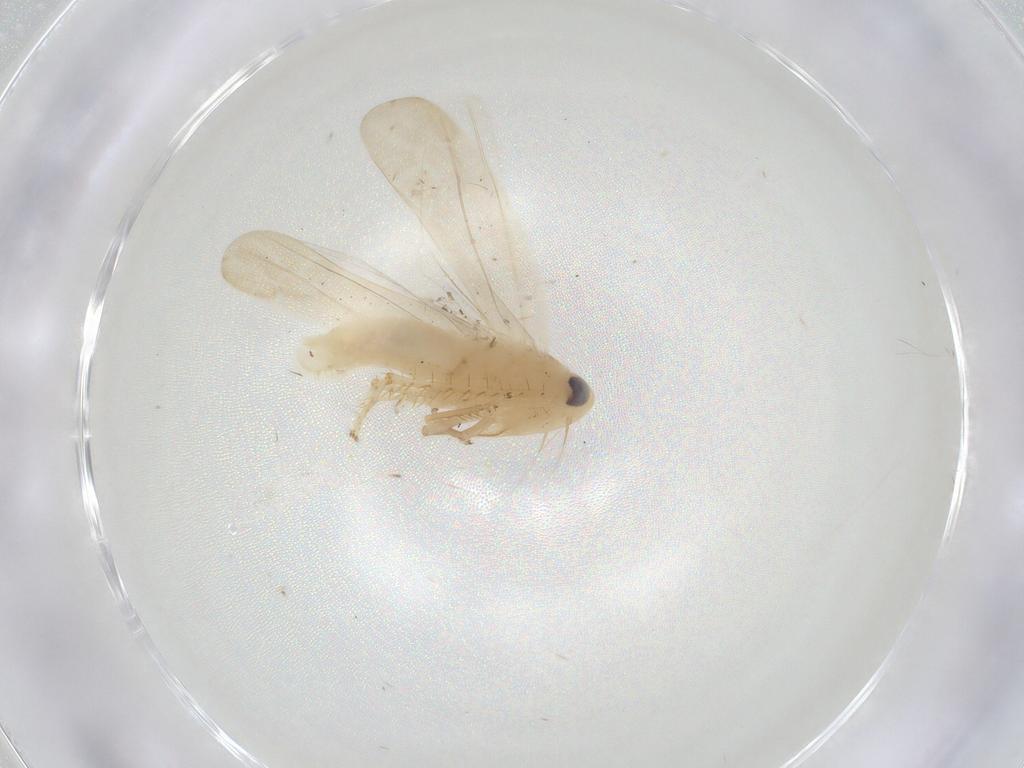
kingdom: Animalia
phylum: Arthropoda
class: Insecta
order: Hemiptera
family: Cicadellidae
